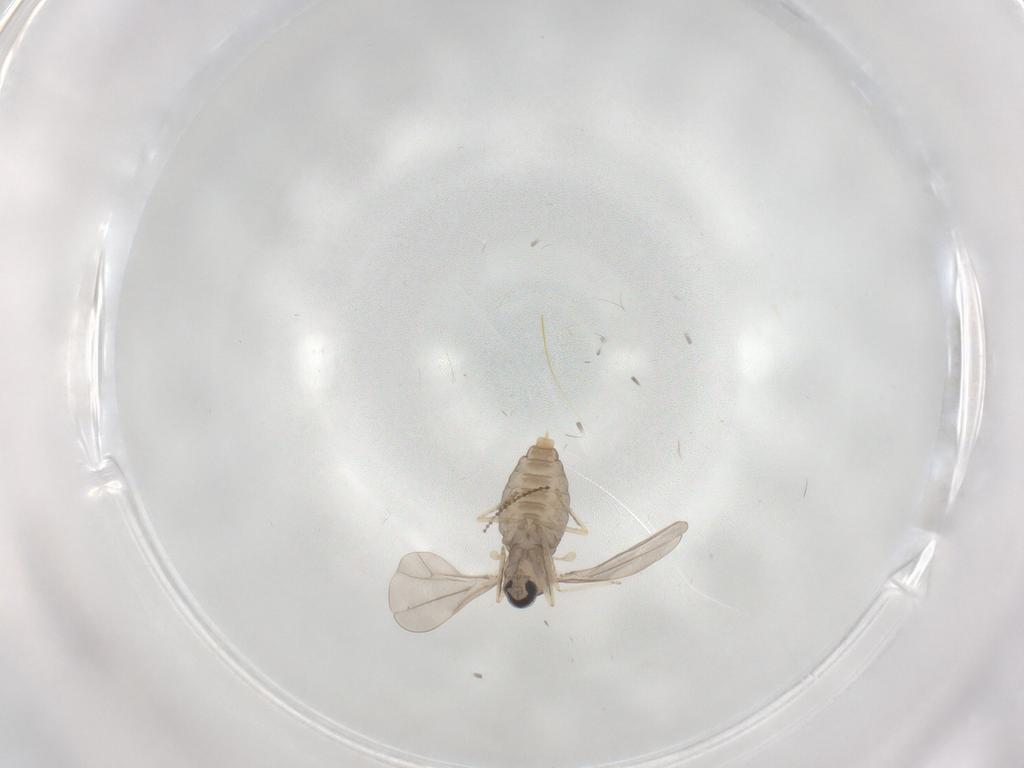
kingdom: Animalia
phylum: Arthropoda
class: Insecta
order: Diptera
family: Cecidomyiidae
